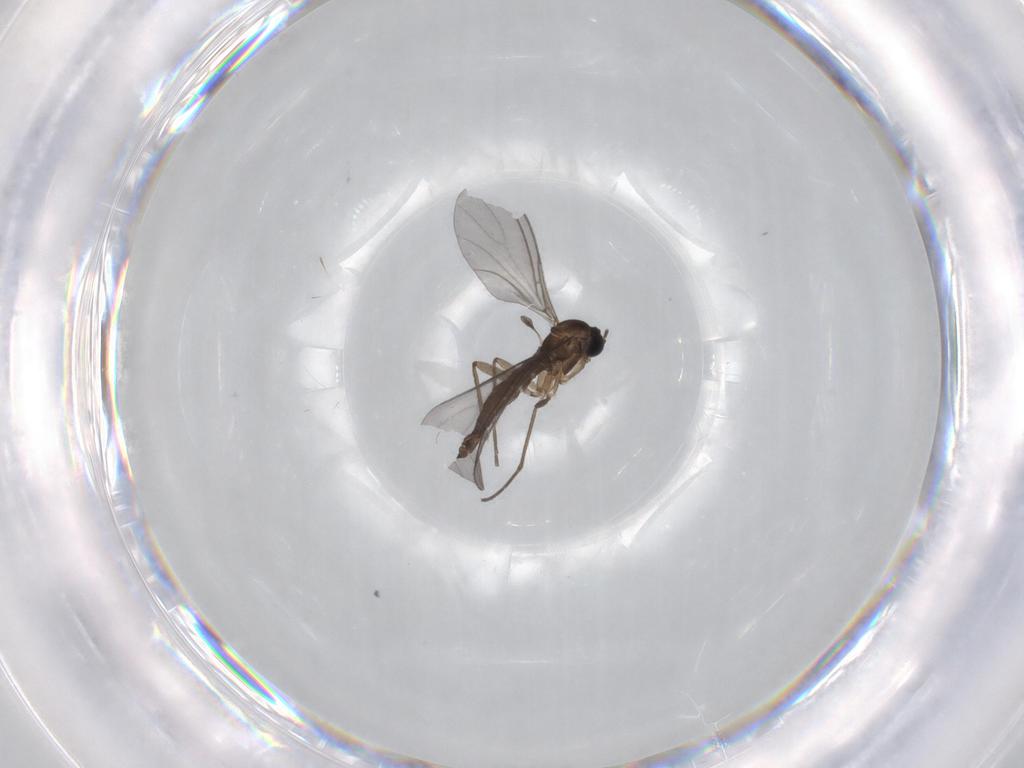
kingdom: Animalia
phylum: Arthropoda
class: Insecta
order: Diptera
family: Sciaridae
